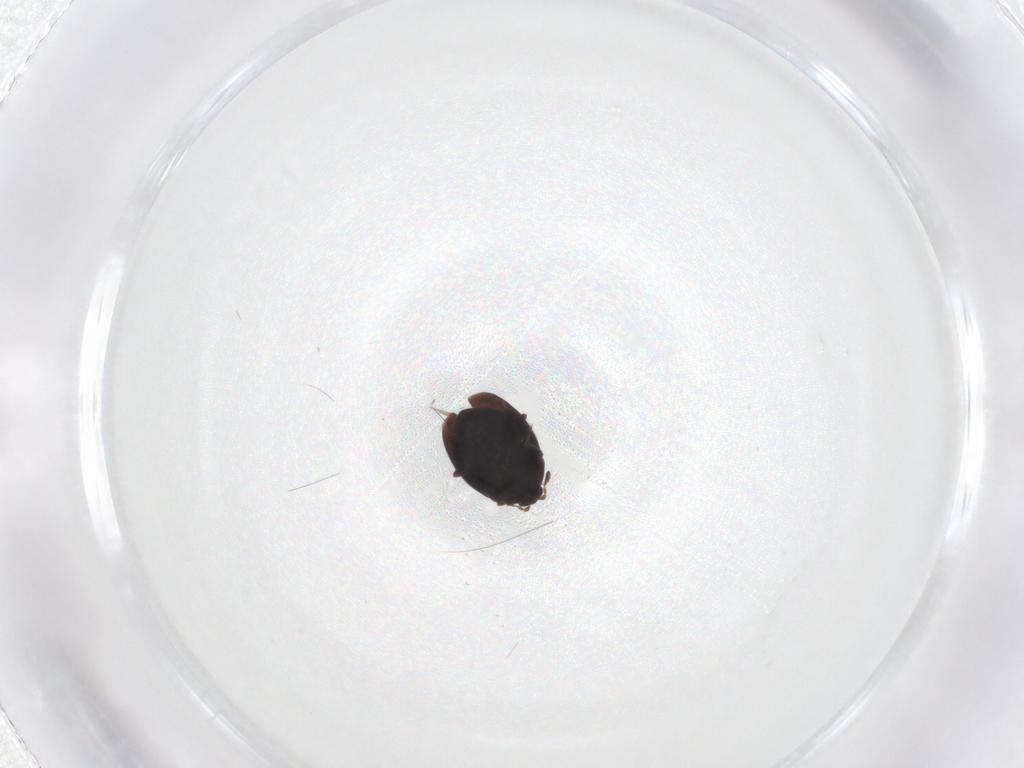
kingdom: Animalia
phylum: Arthropoda
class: Insecta
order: Coleoptera
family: Corylophidae
